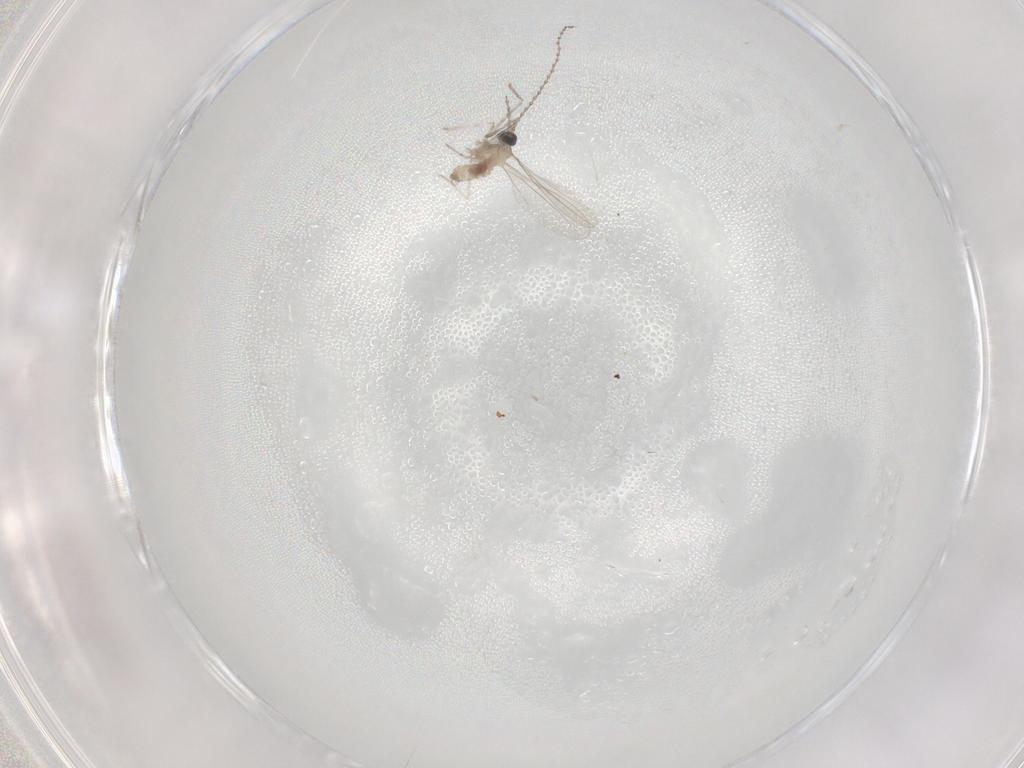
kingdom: Animalia
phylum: Arthropoda
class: Insecta
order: Diptera
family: Cecidomyiidae
